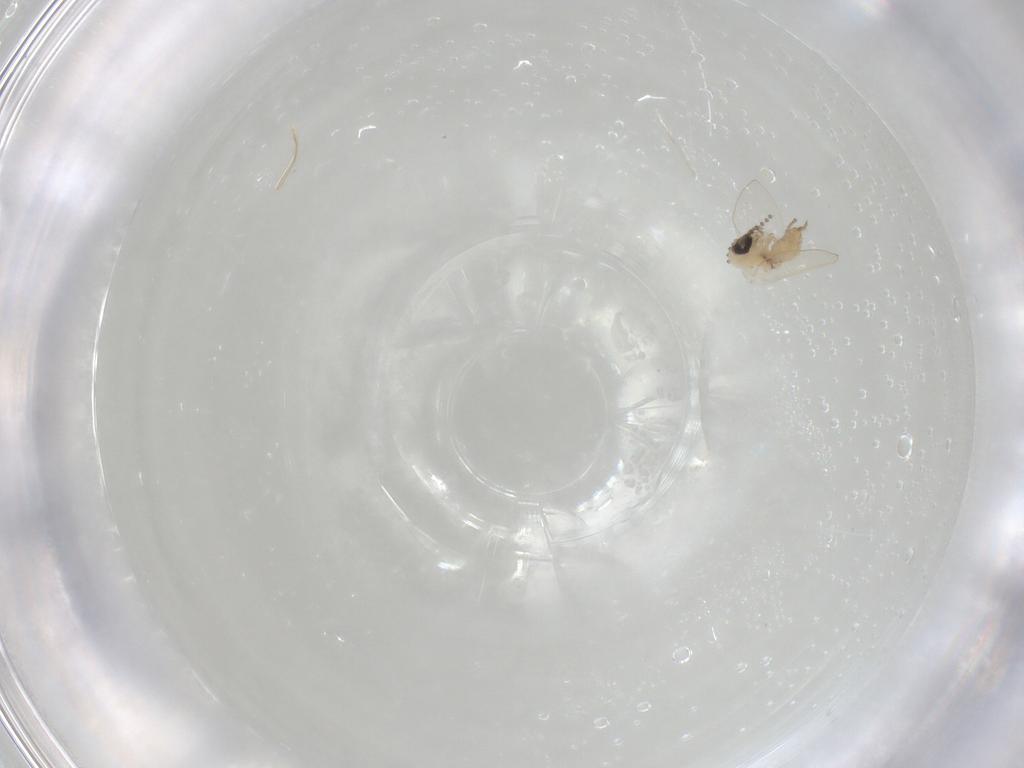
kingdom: Animalia
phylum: Arthropoda
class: Insecta
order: Diptera
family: Psychodidae
